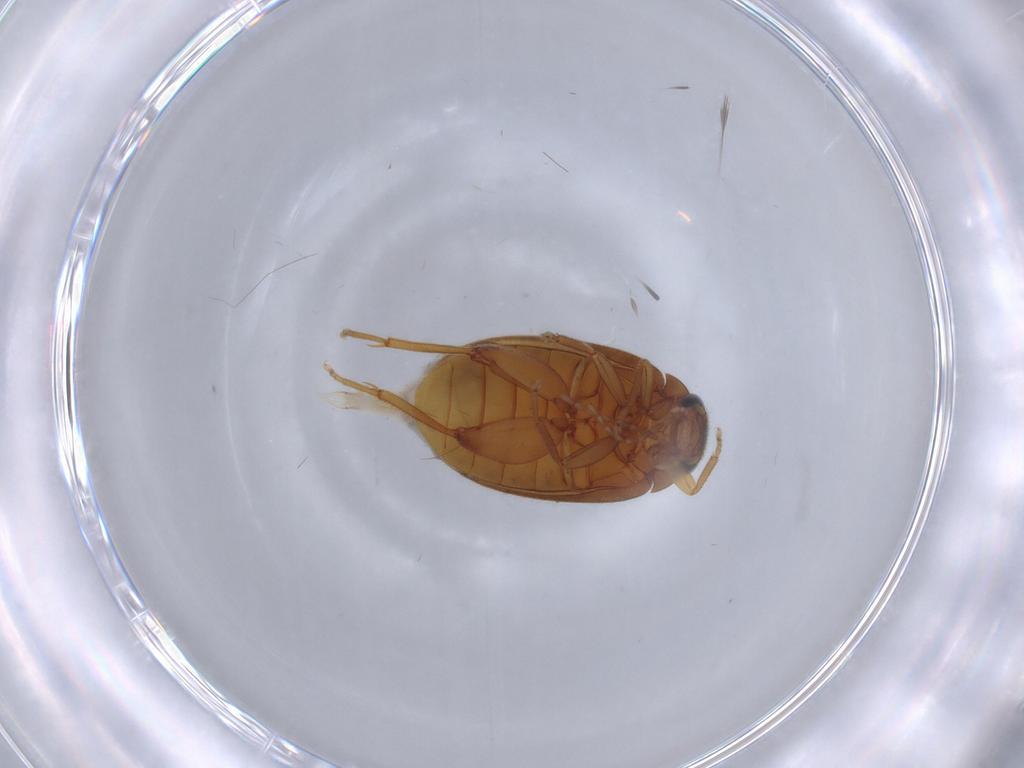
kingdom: Animalia
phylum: Arthropoda
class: Insecta
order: Coleoptera
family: Scirtidae
